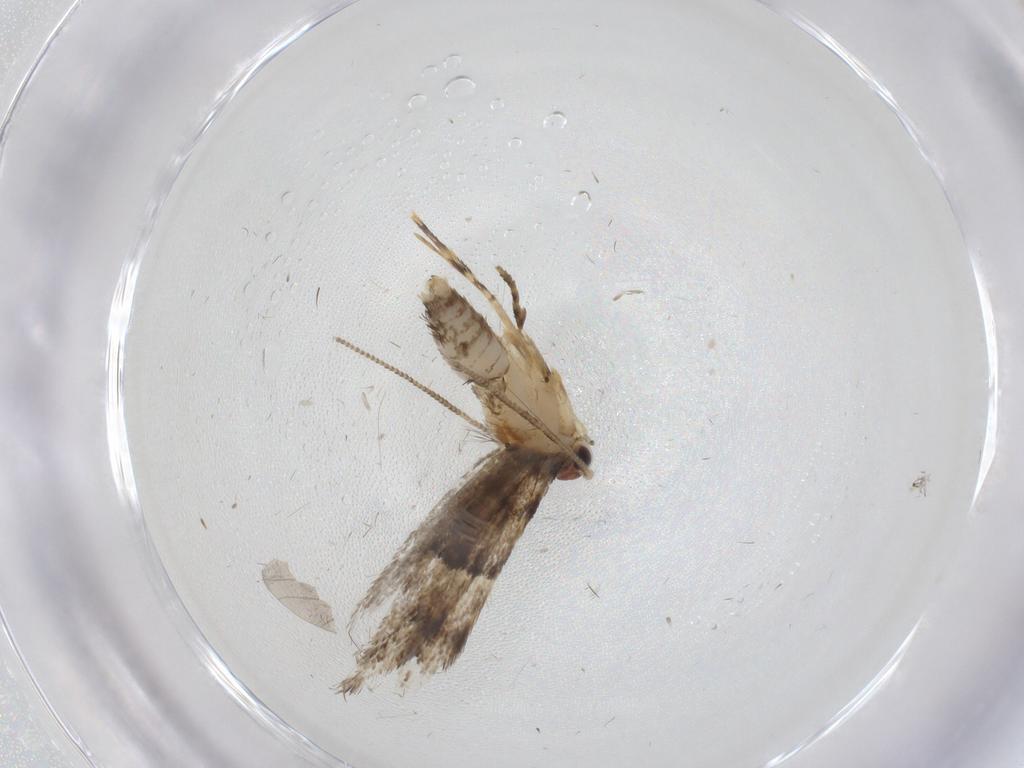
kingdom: Animalia
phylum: Arthropoda
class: Insecta
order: Lepidoptera
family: Tineidae
